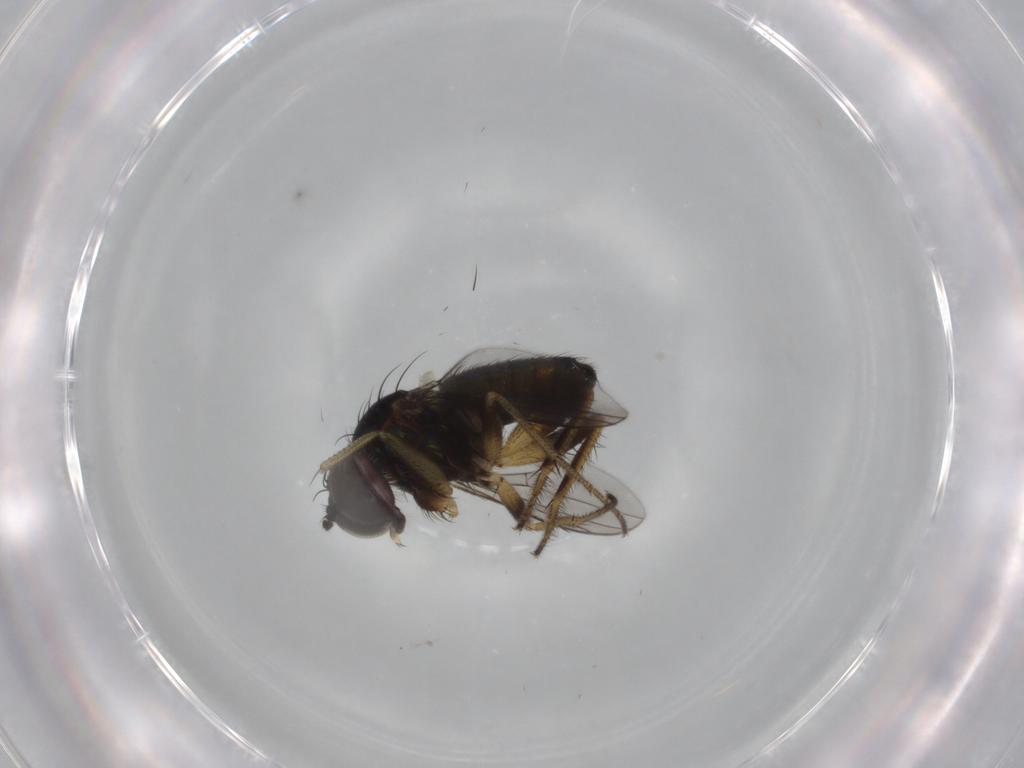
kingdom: Animalia
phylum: Arthropoda
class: Insecta
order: Diptera
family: Dolichopodidae
